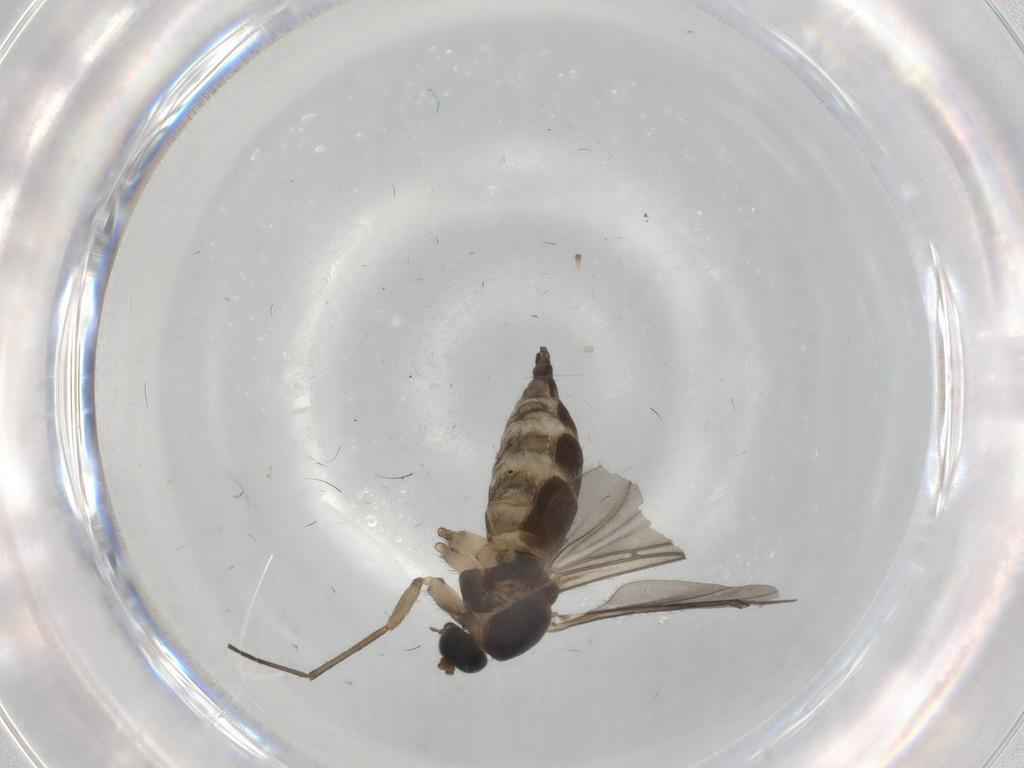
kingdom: Animalia
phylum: Arthropoda
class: Insecta
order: Diptera
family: Sciaridae
